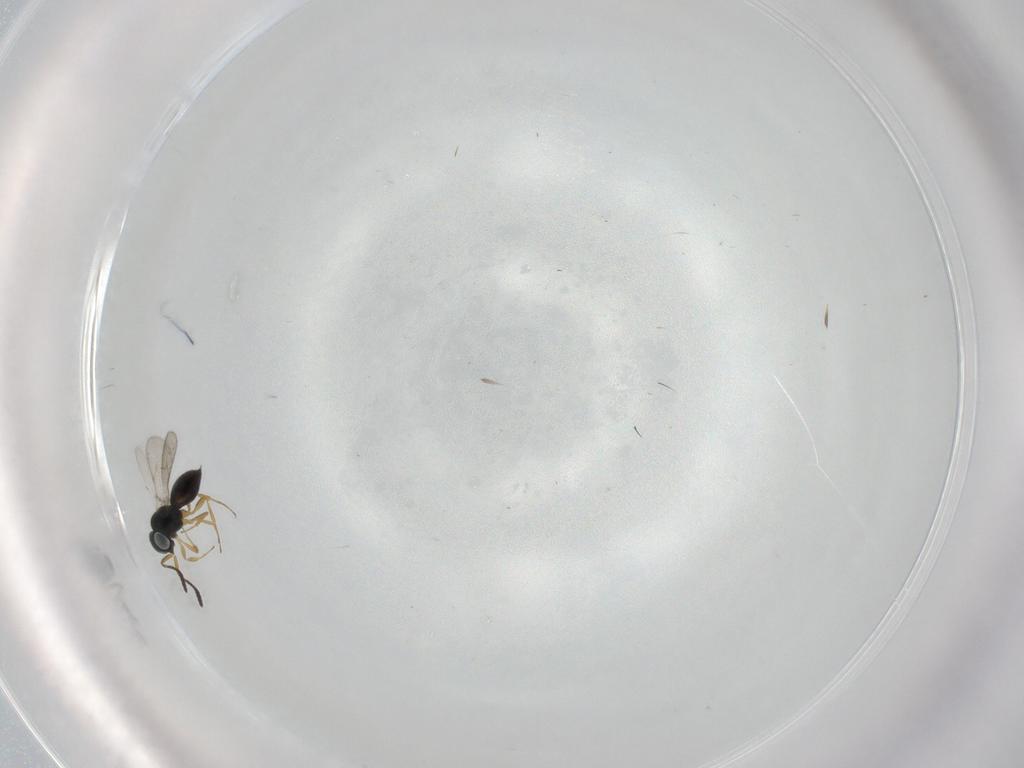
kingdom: Animalia
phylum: Arthropoda
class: Insecta
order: Hymenoptera
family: Scelionidae
